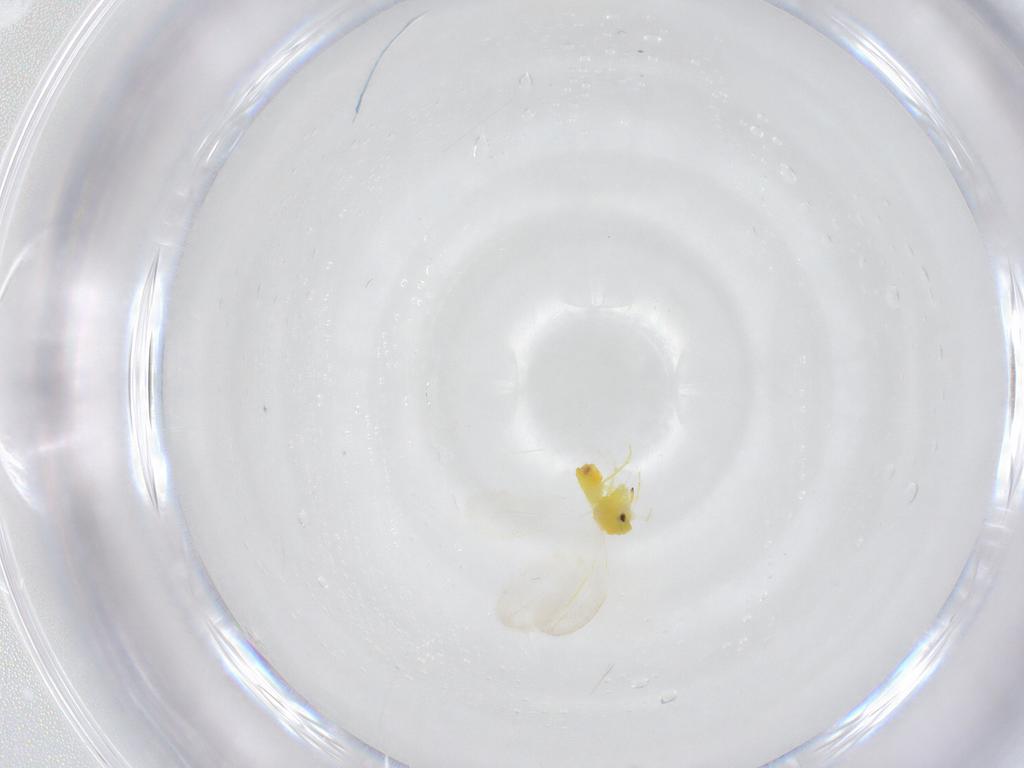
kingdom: Animalia
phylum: Arthropoda
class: Insecta
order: Hemiptera
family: Aleyrodidae
